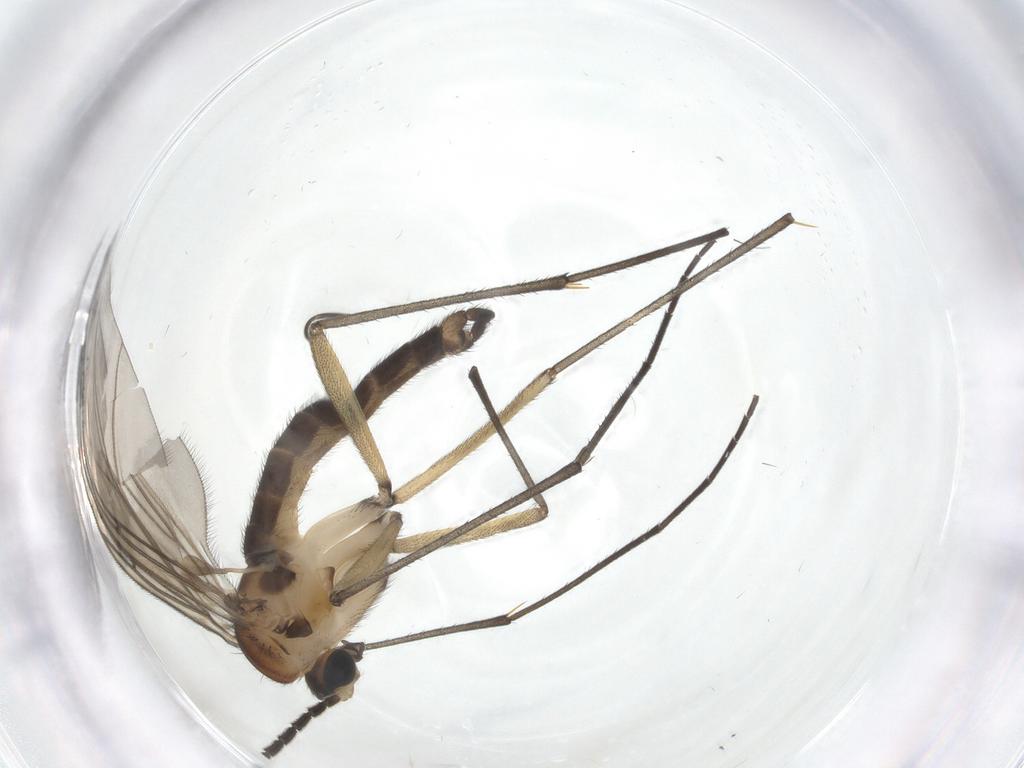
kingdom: Animalia
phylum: Arthropoda
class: Insecta
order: Diptera
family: Sciaridae
